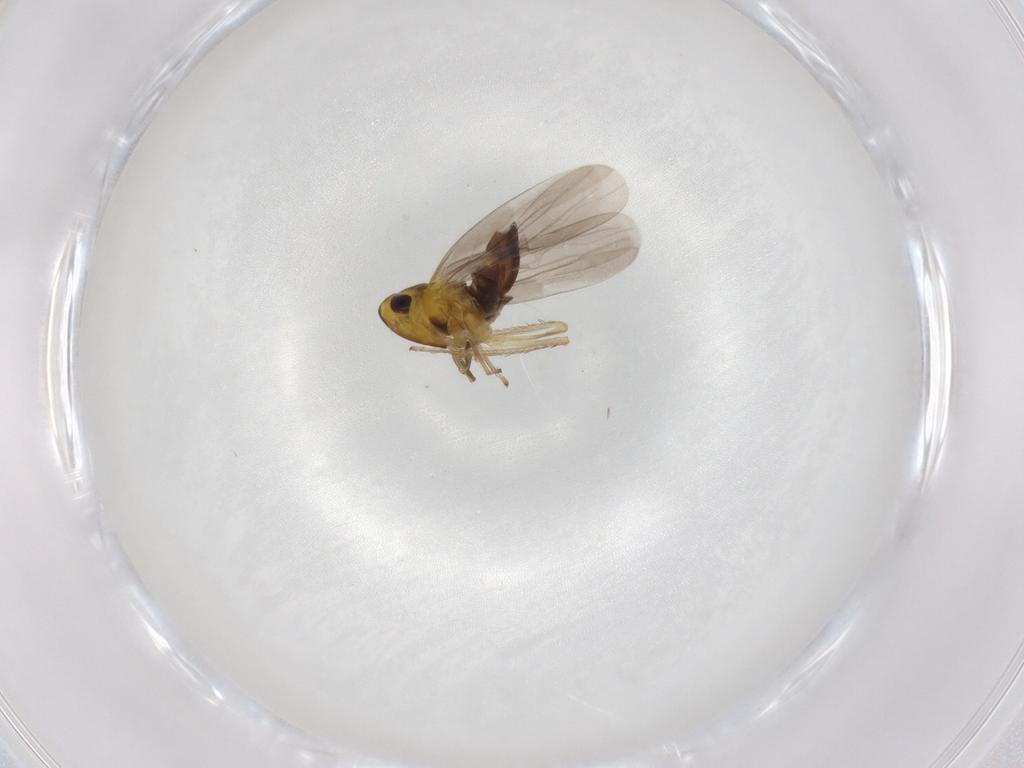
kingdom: Animalia
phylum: Arthropoda
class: Insecta
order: Hemiptera
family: Cicadellidae
